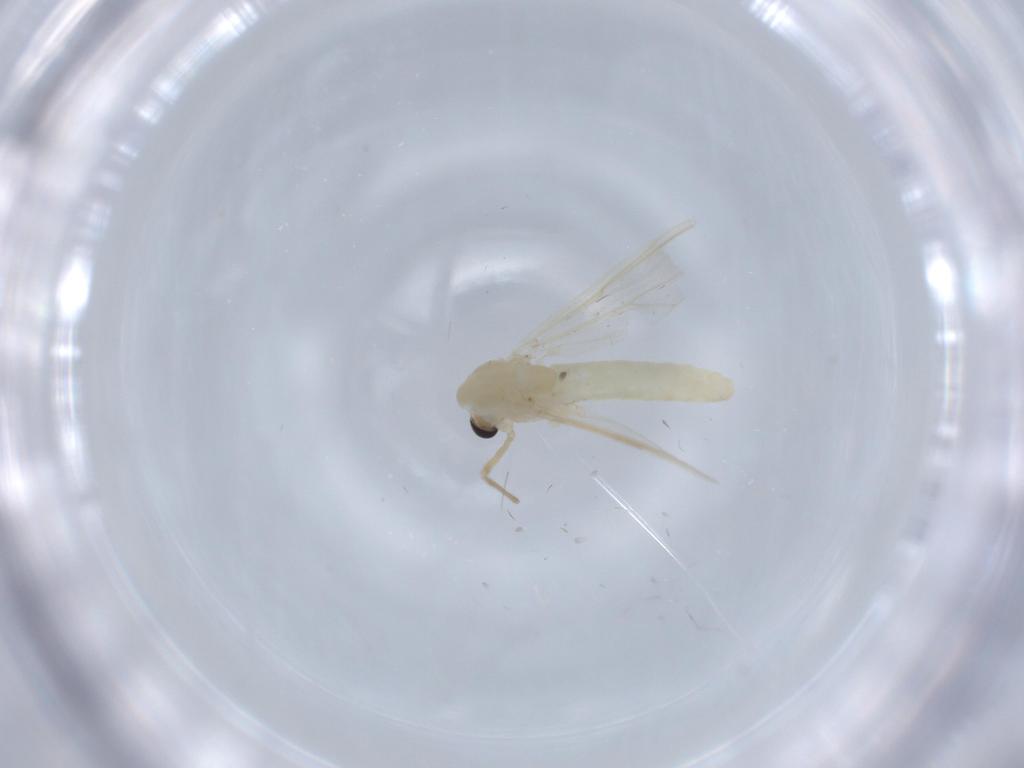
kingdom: Animalia
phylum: Arthropoda
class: Insecta
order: Diptera
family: Chironomidae
